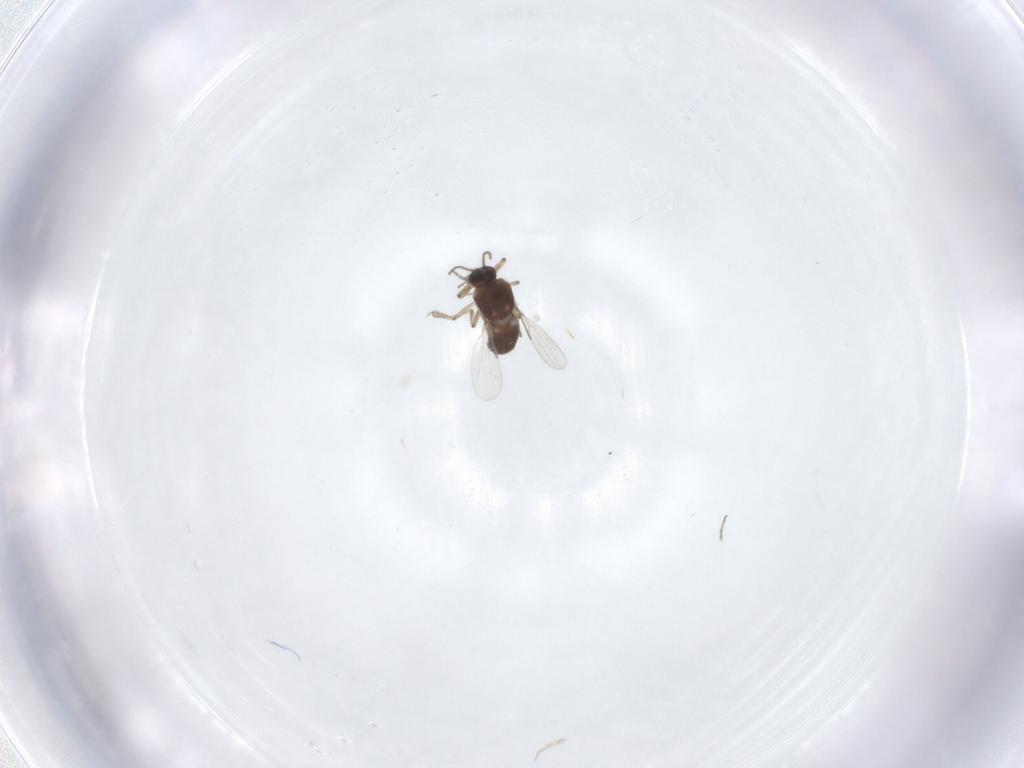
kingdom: Animalia
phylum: Arthropoda
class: Insecta
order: Diptera
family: Ceratopogonidae
